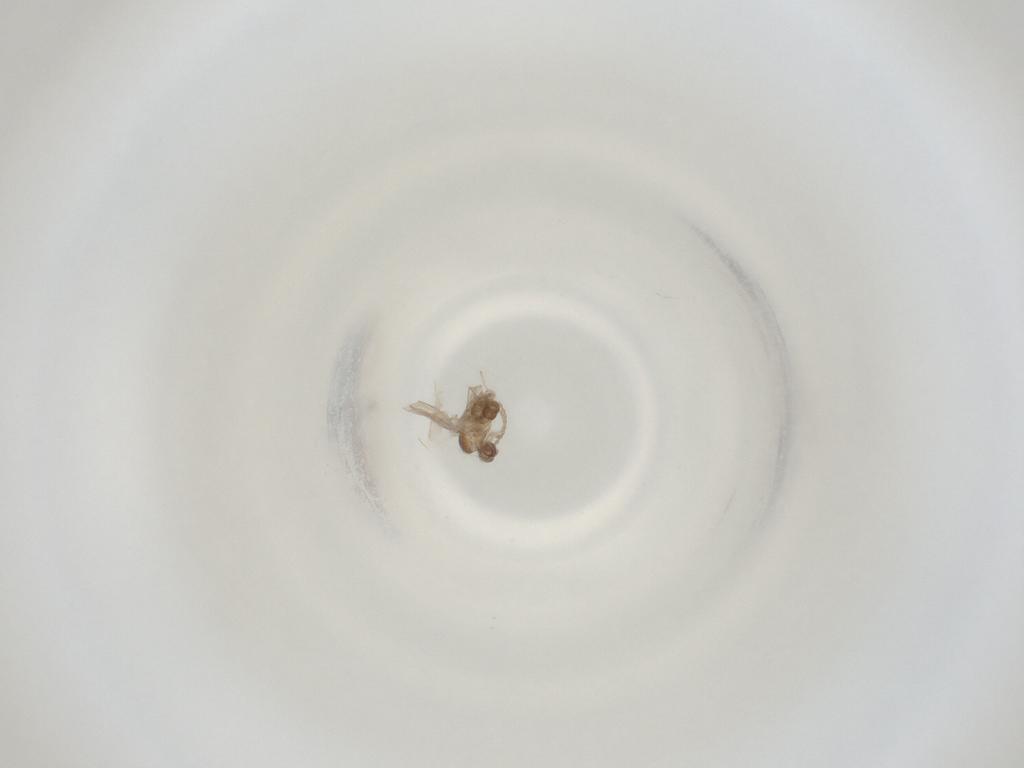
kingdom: Animalia
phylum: Arthropoda
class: Insecta
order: Diptera
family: Cecidomyiidae
